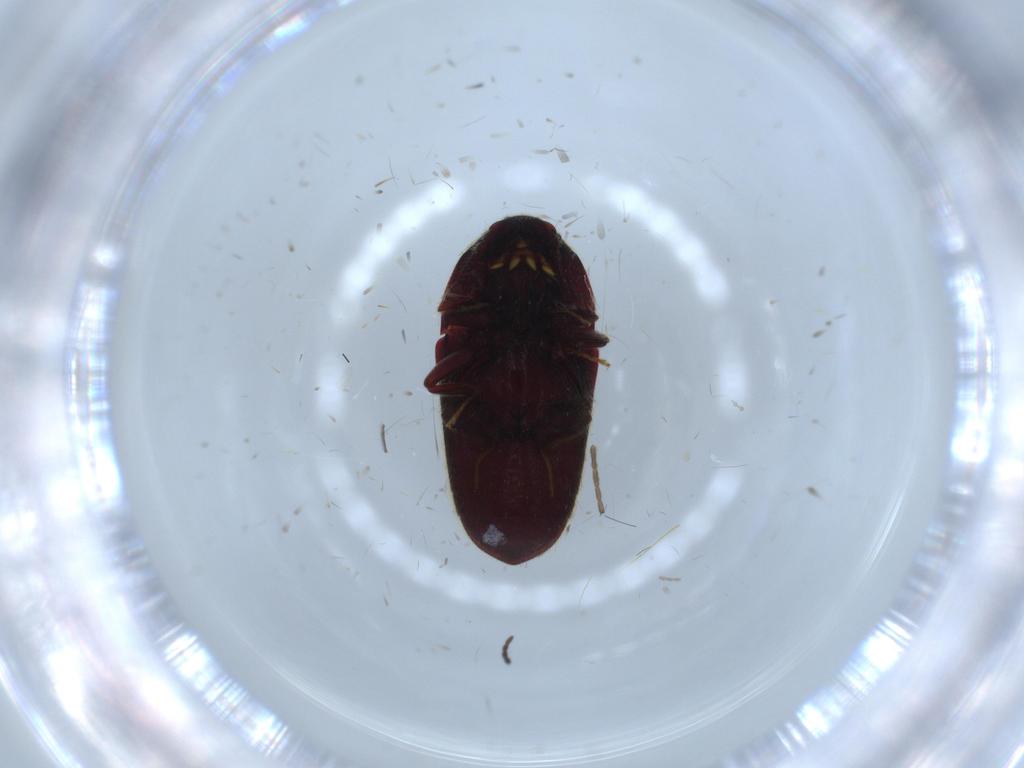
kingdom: Animalia
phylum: Arthropoda
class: Insecta
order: Coleoptera
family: Throscidae
